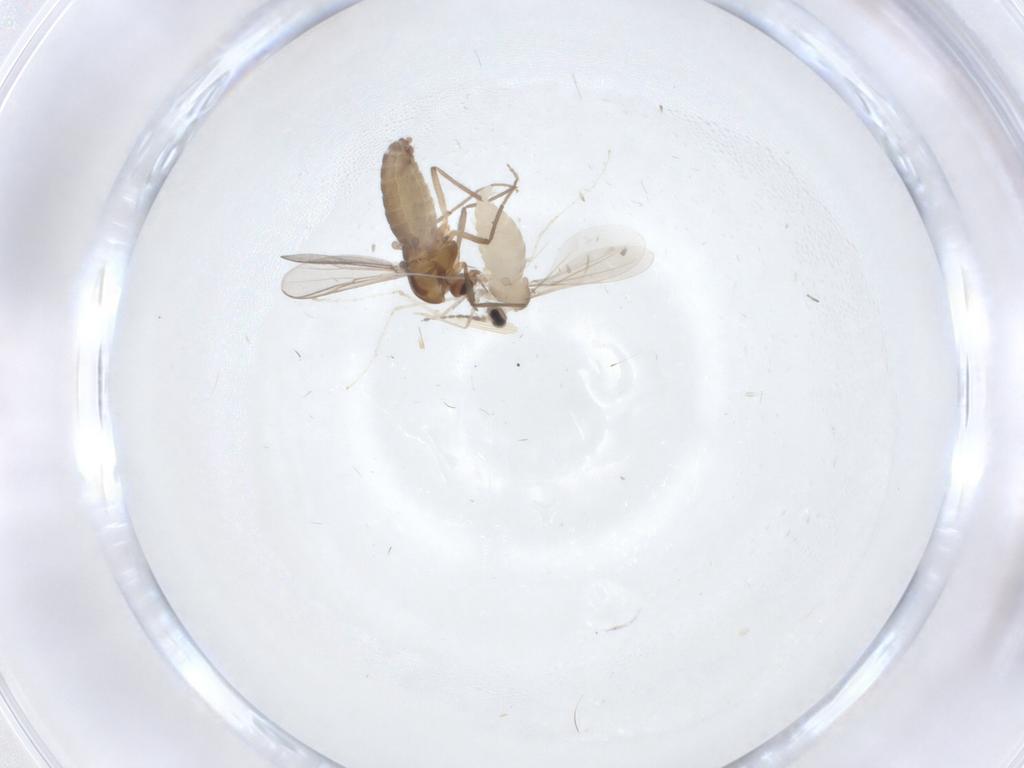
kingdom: Animalia
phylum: Arthropoda
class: Insecta
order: Diptera
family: Cecidomyiidae
